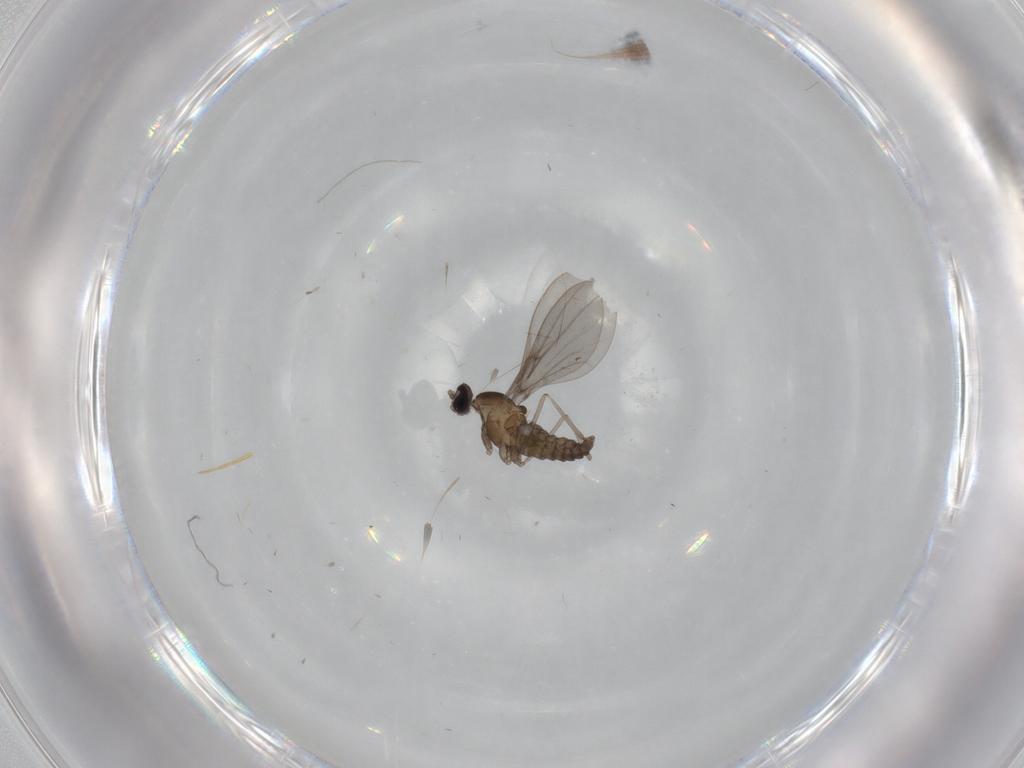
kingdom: Animalia
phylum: Arthropoda
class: Insecta
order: Diptera
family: Cecidomyiidae
